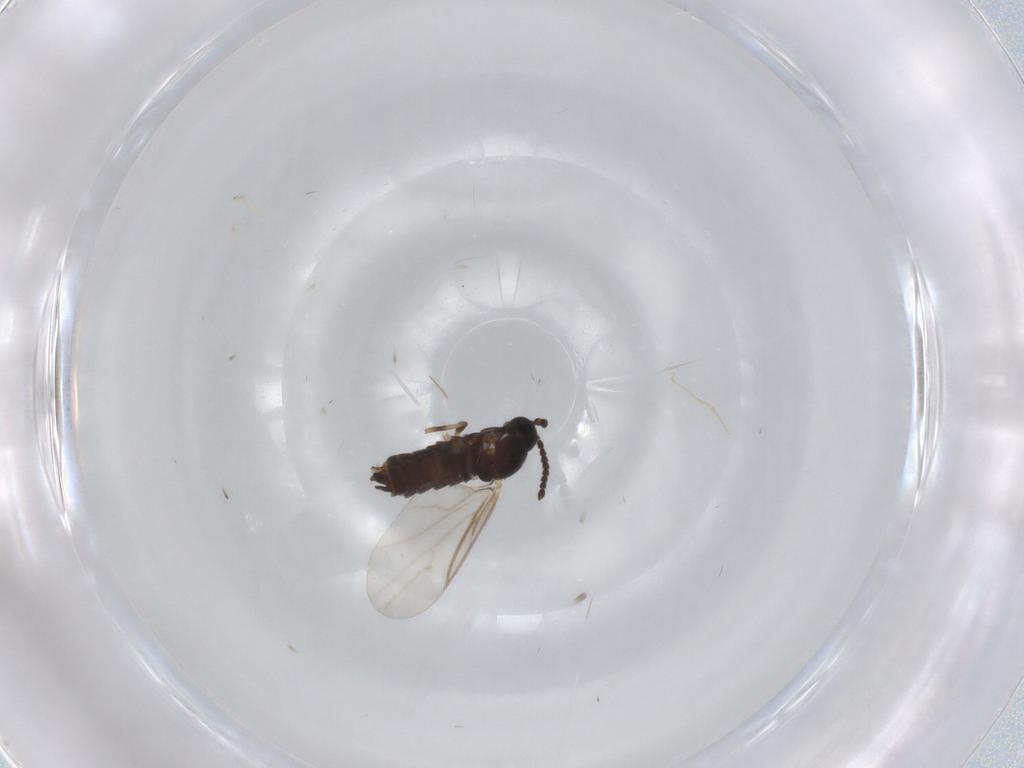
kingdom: Animalia
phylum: Arthropoda
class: Insecta
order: Diptera
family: Scatopsidae
